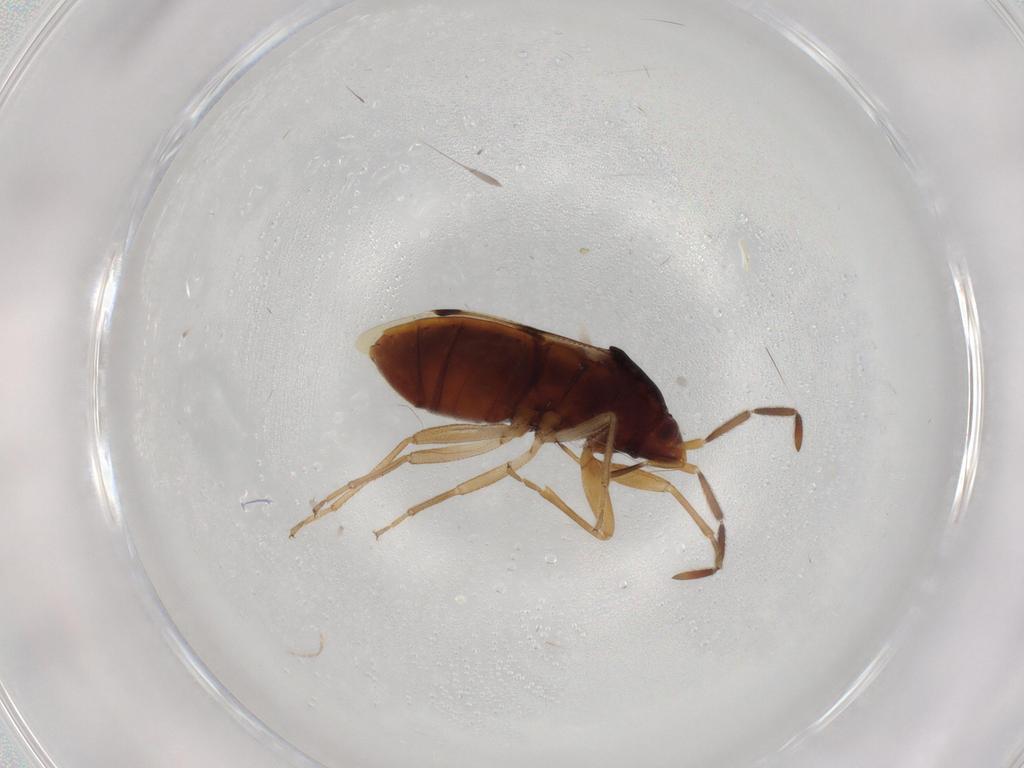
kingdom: Animalia
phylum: Arthropoda
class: Insecta
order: Hemiptera
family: Rhyparochromidae
